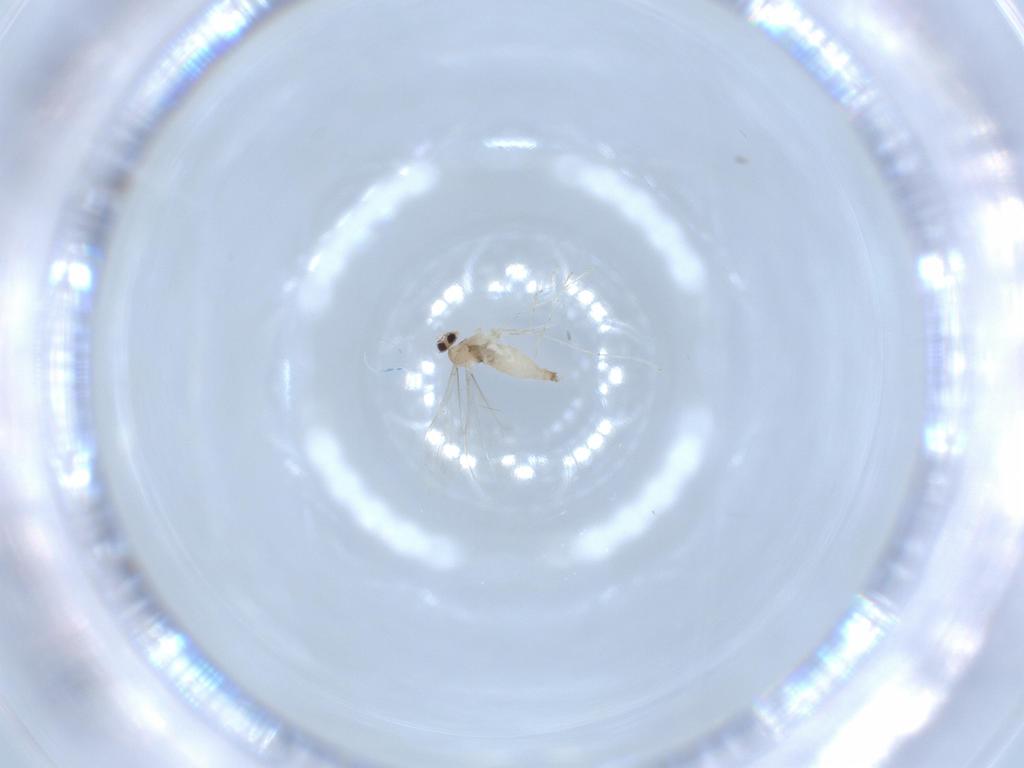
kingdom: Animalia
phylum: Arthropoda
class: Insecta
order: Diptera
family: Cecidomyiidae
